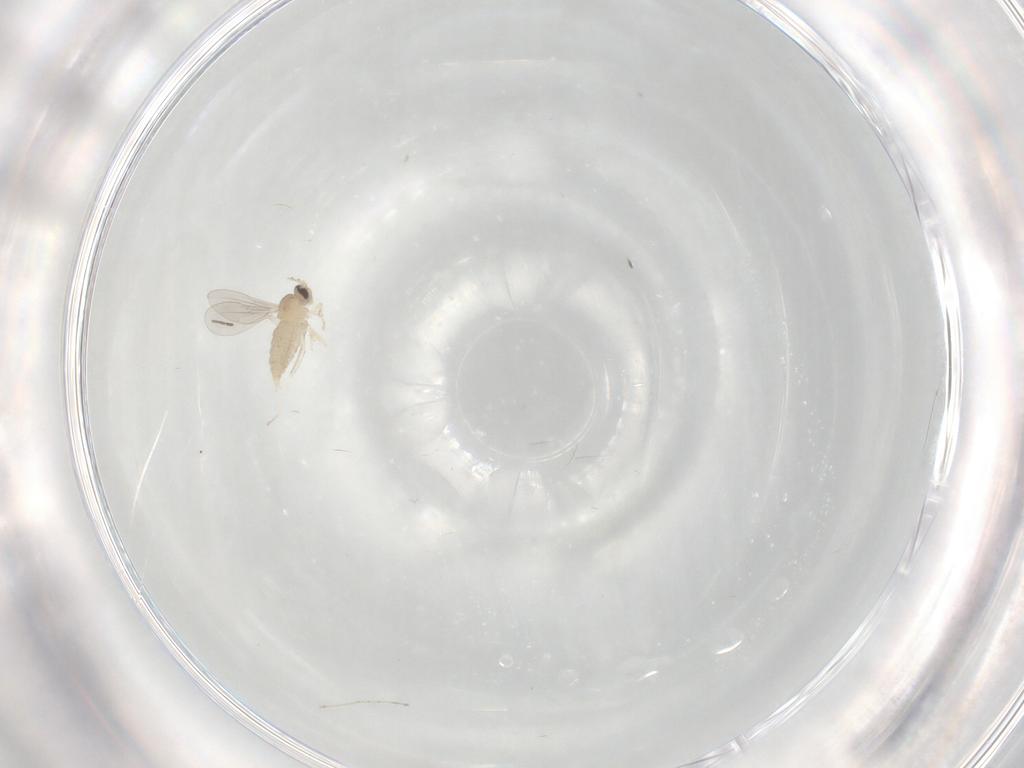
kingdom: Animalia
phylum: Arthropoda
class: Insecta
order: Diptera
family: Cecidomyiidae
